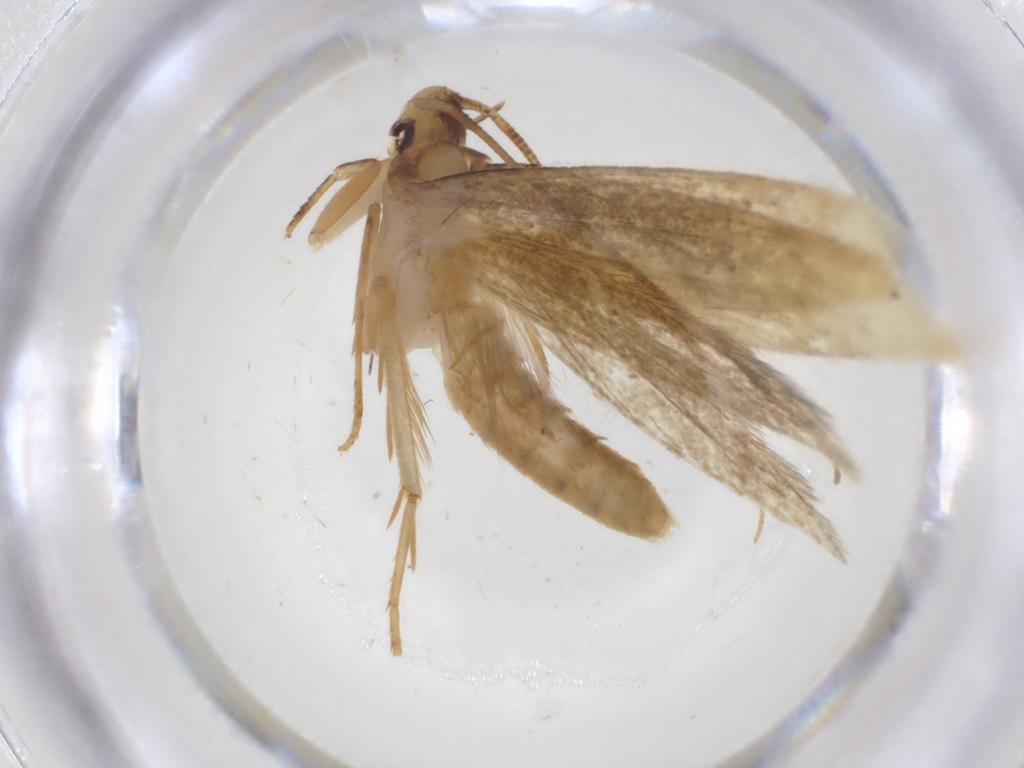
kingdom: Animalia
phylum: Arthropoda
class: Insecta
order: Lepidoptera
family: Tineidae
